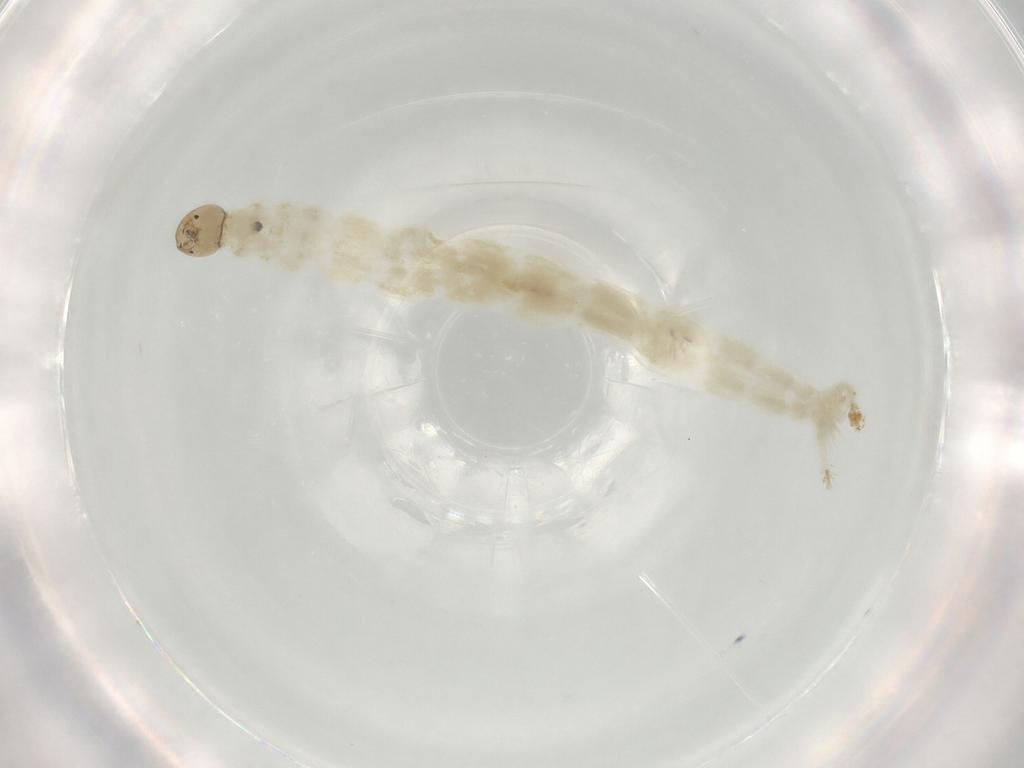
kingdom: Animalia
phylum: Arthropoda
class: Insecta
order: Diptera
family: Chironomidae
